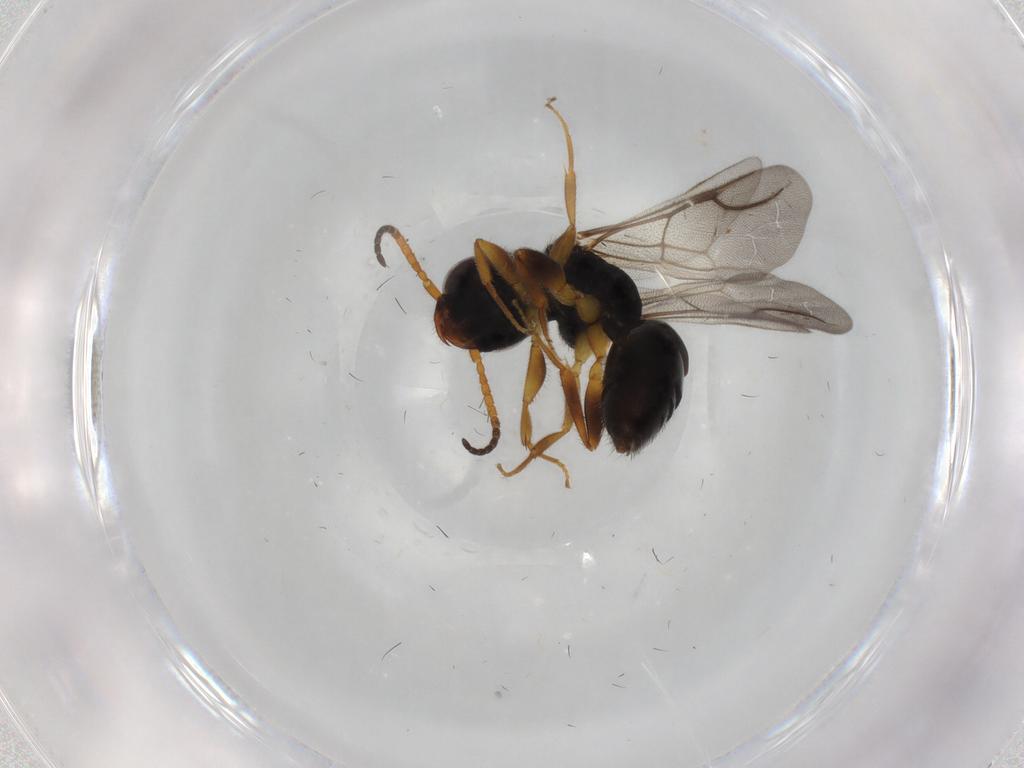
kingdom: Animalia
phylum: Arthropoda
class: Insecta
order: Hymenoptera
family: Bethylidae
